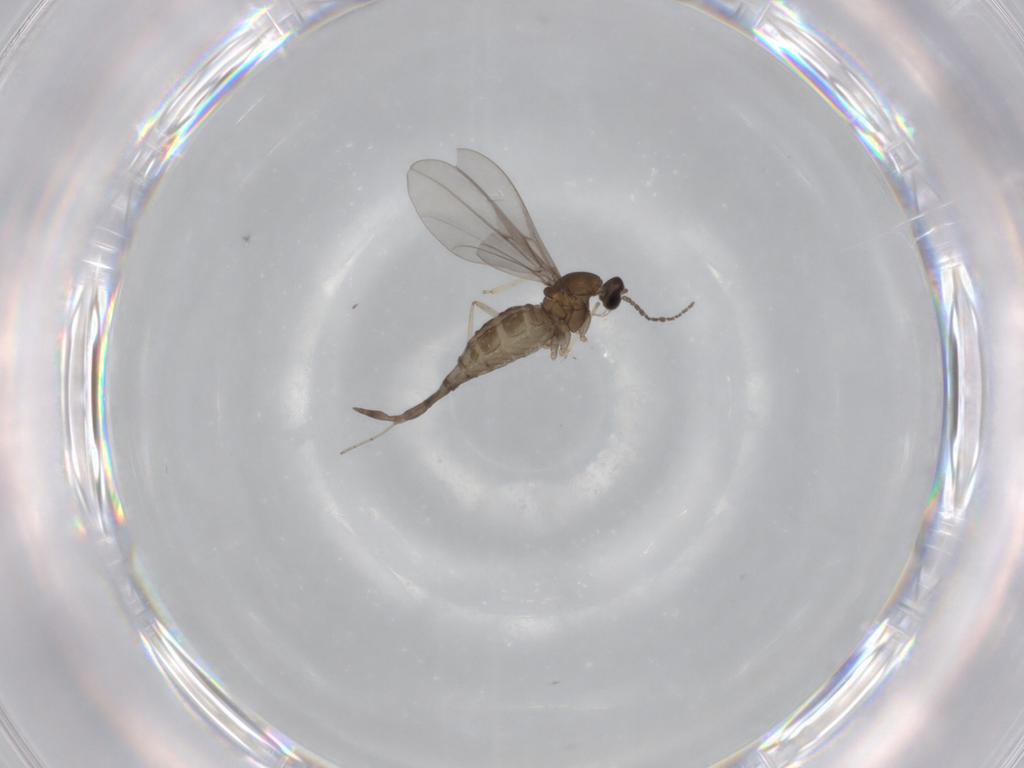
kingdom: Animalia
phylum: Arthropoda
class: Insecta
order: Diptera
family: Cecidomyiidae
